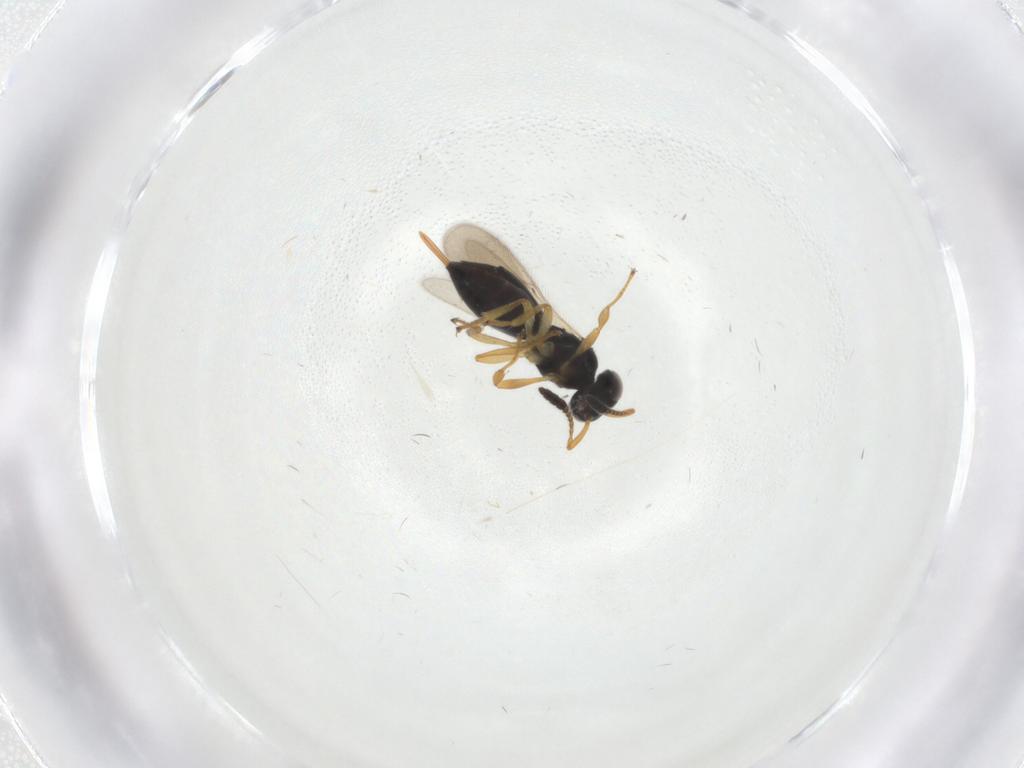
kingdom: Animalia
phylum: Arthropoda
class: Insecta
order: Hymenoptera
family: Scelionidae
